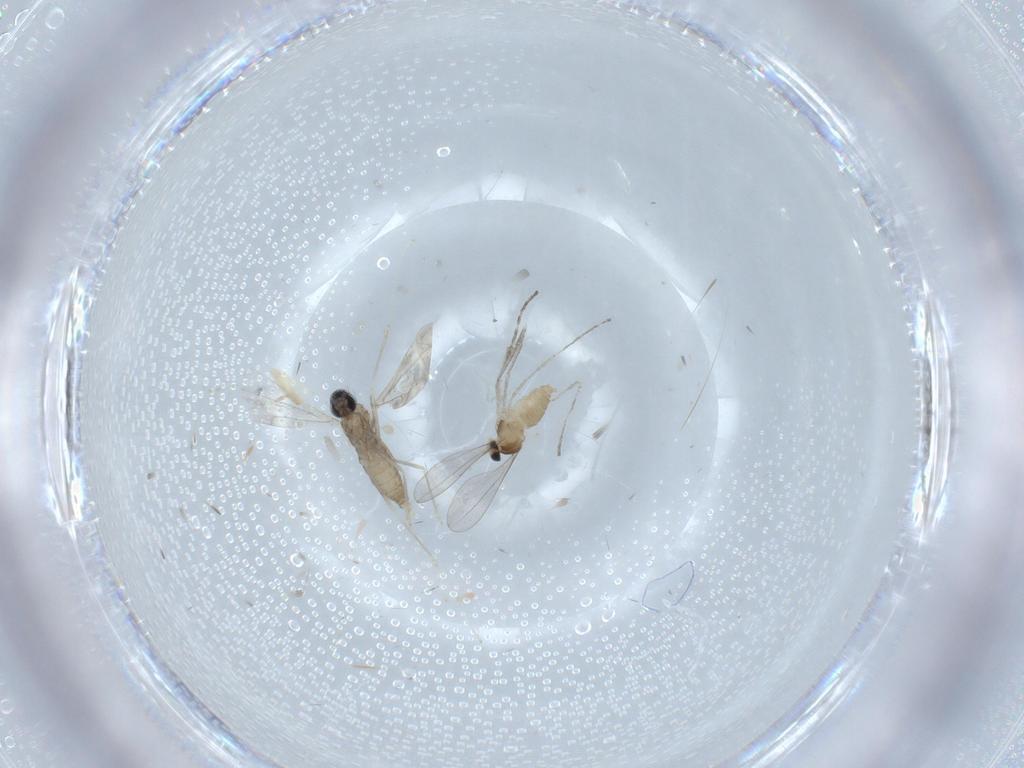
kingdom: Animalia
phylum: Arthropoda
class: Insecta
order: Diptera
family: Cecidomyiidae
